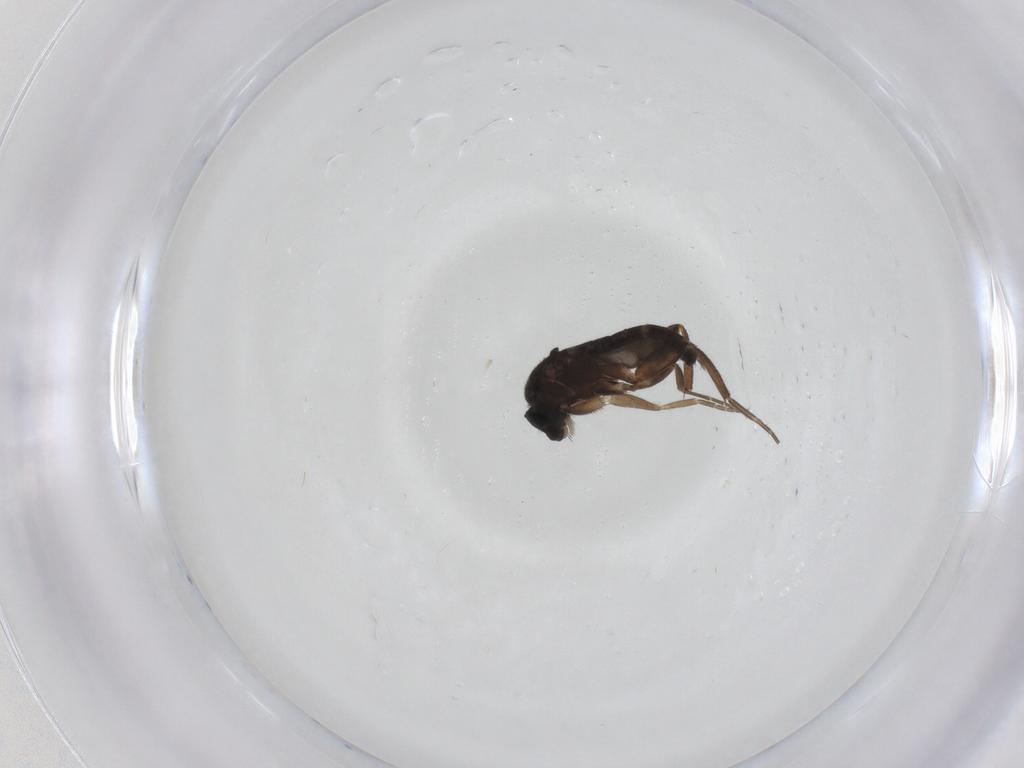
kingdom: Animalia
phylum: Arthropoda
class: Insecta
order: Diptera
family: Phoridae
